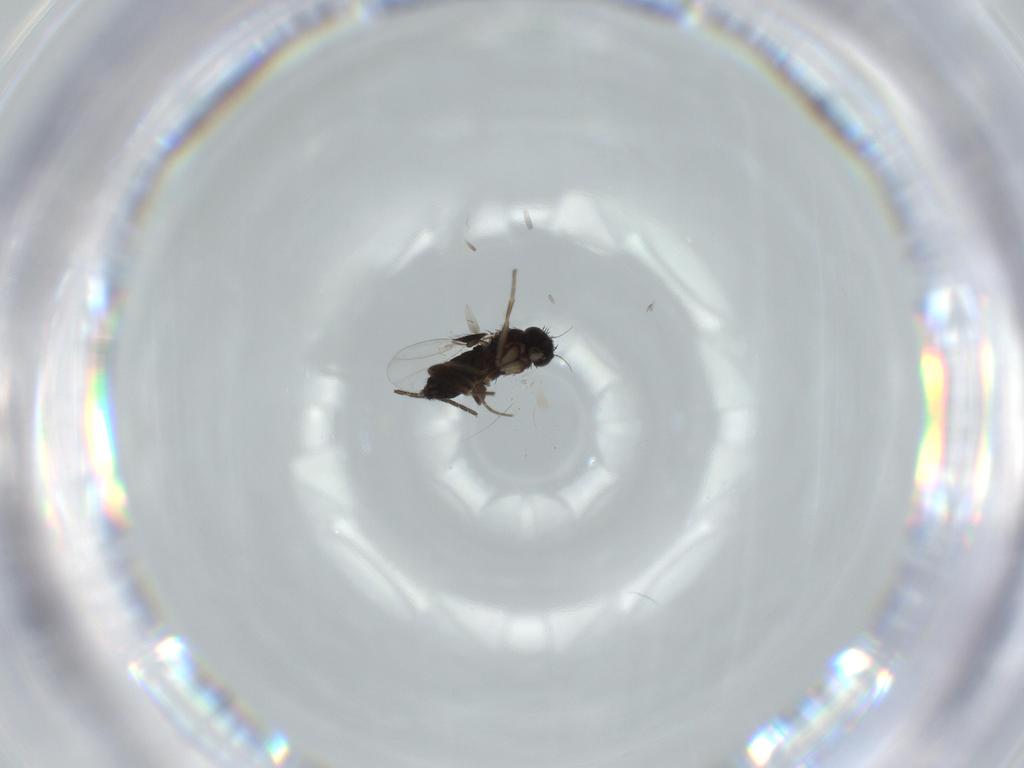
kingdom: Animalia
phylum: Arthropoda
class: Insecta
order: Diptera
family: Phoridae
